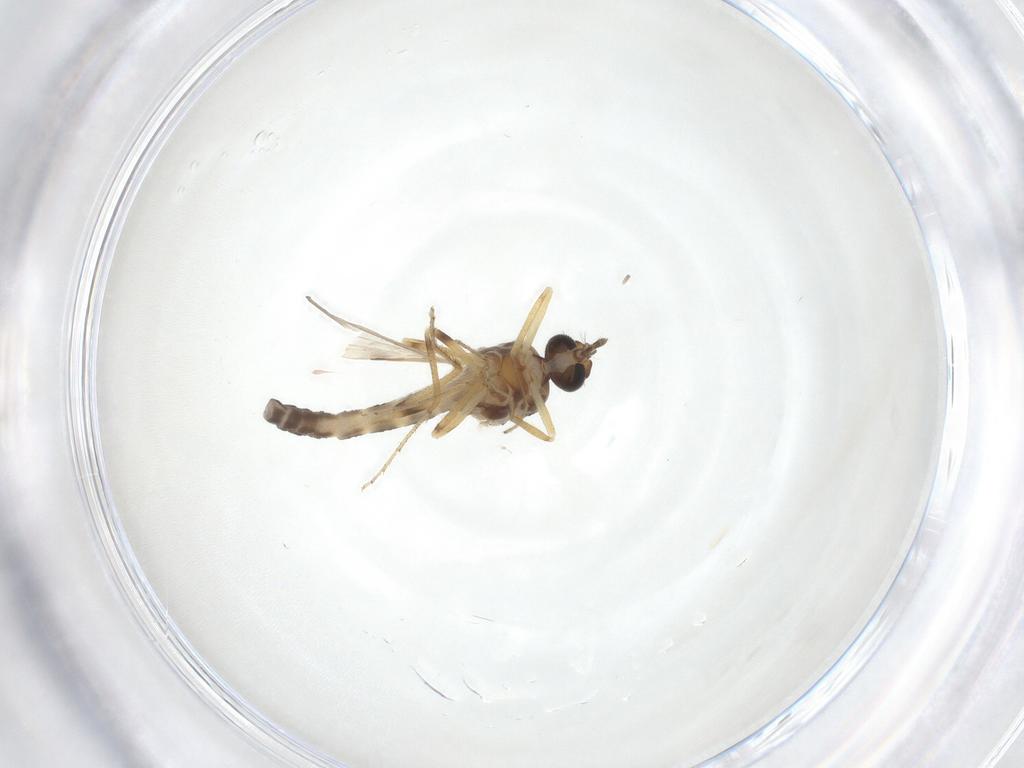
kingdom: Animalia
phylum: Arthropoda
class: Insecta
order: Diptera
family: Ceratopogonidae
